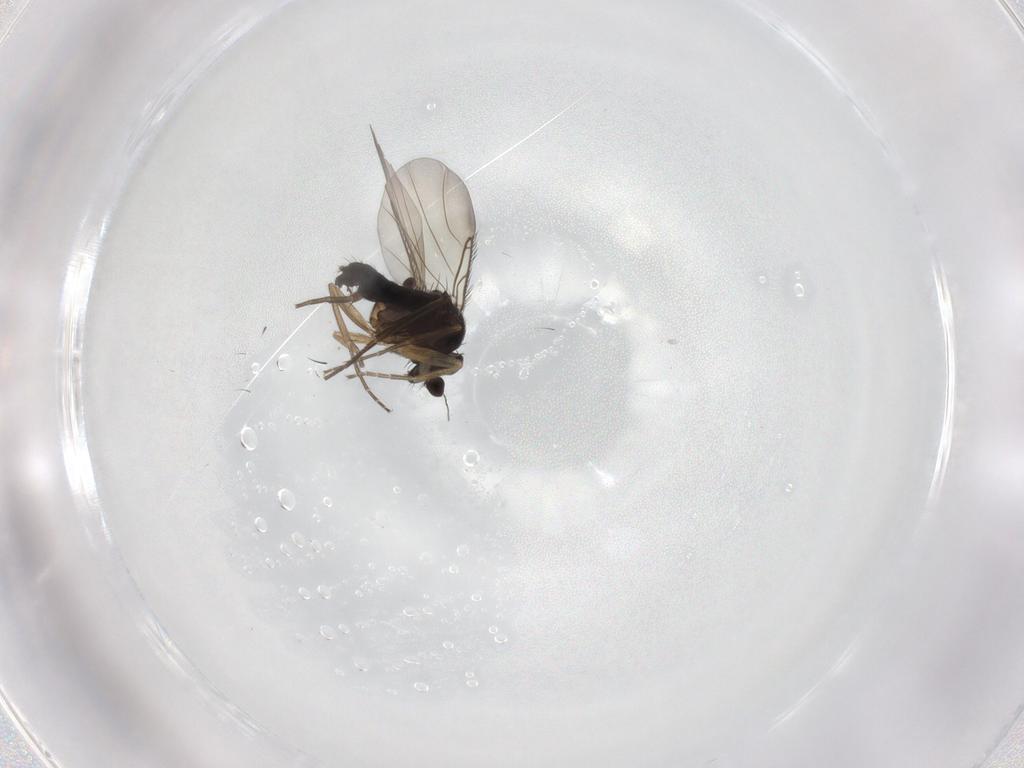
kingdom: Animalia
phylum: Arthropoda
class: Insecta
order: Diptera
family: Phoridae
